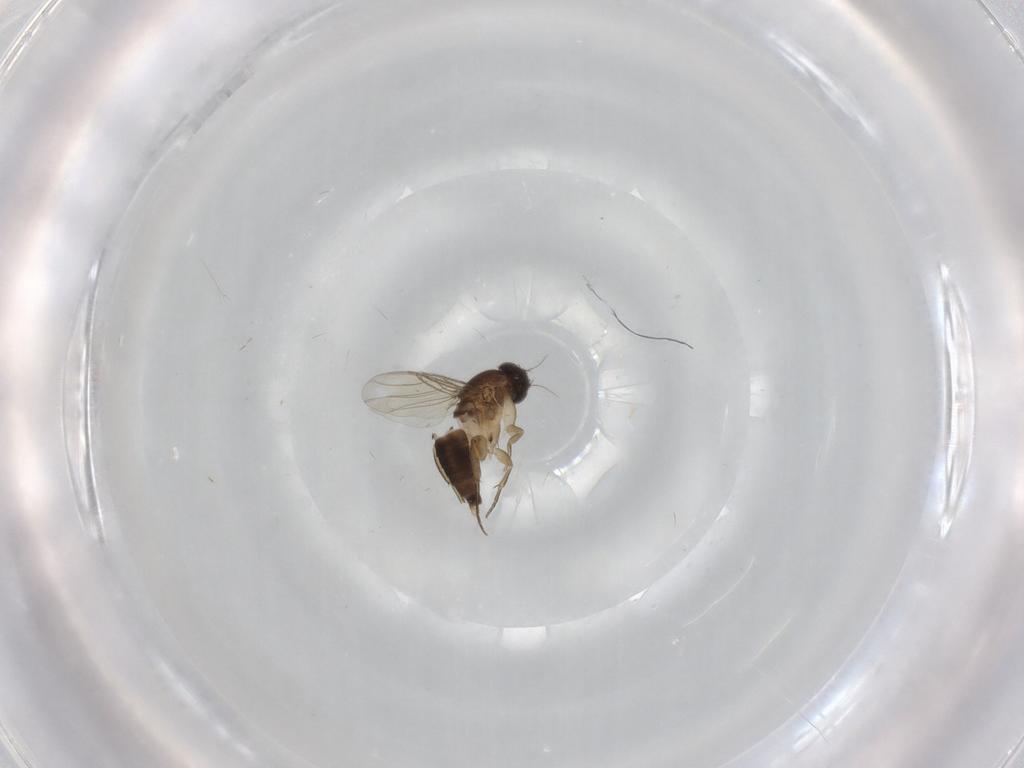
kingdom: Animalia
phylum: Arthropoda
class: Insecta
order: Diptera
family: Phoridae
